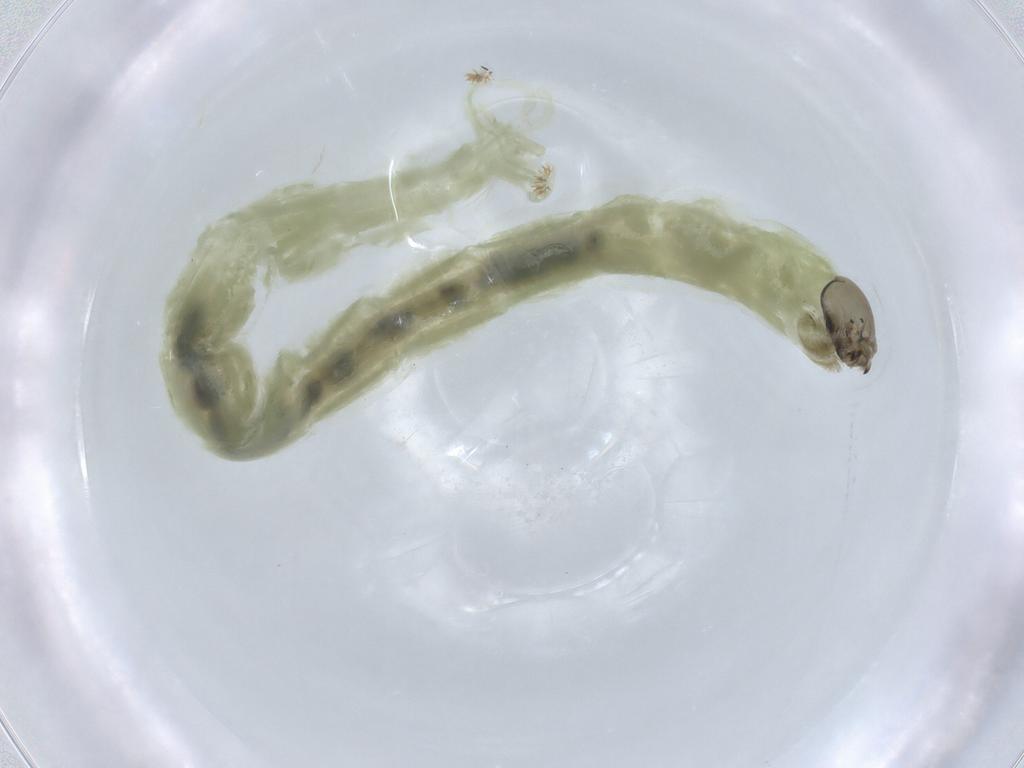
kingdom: Animalia
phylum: Arthropoda
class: Insecta
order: Diptera
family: Chironomidae
